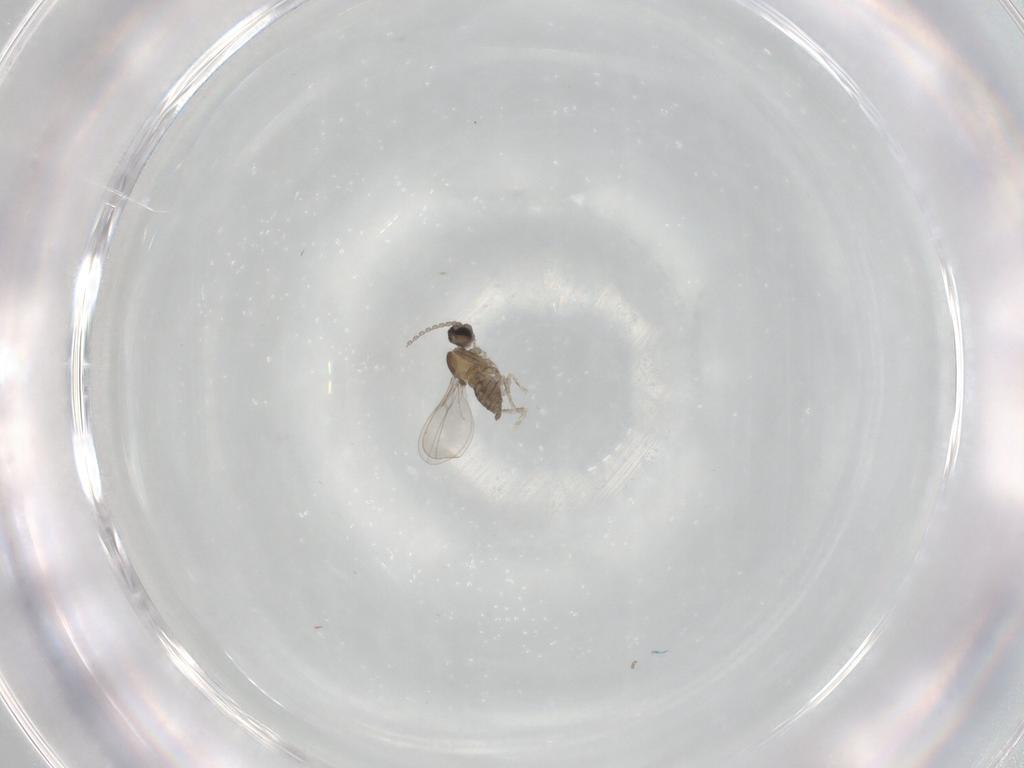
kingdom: Animalia
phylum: Arthropoda
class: Insecta
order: Diptera
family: Cecidomyiidae
